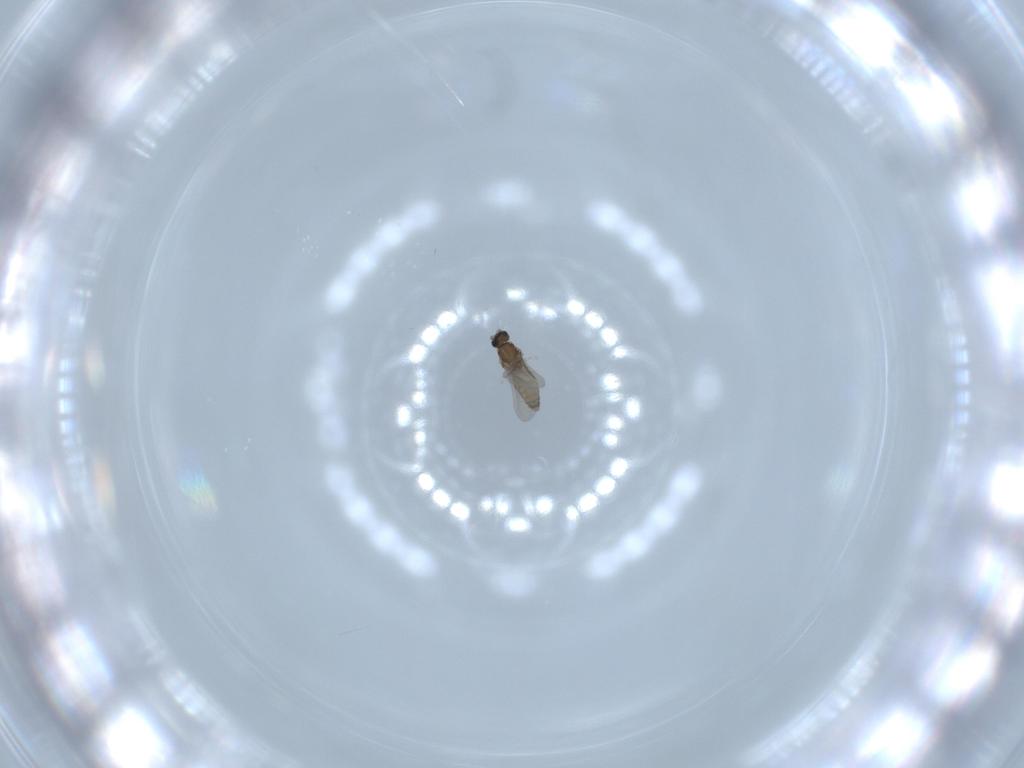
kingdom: Animalia
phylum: Arthropoda
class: Insecta
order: Diptera
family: Cecidomyiidae
